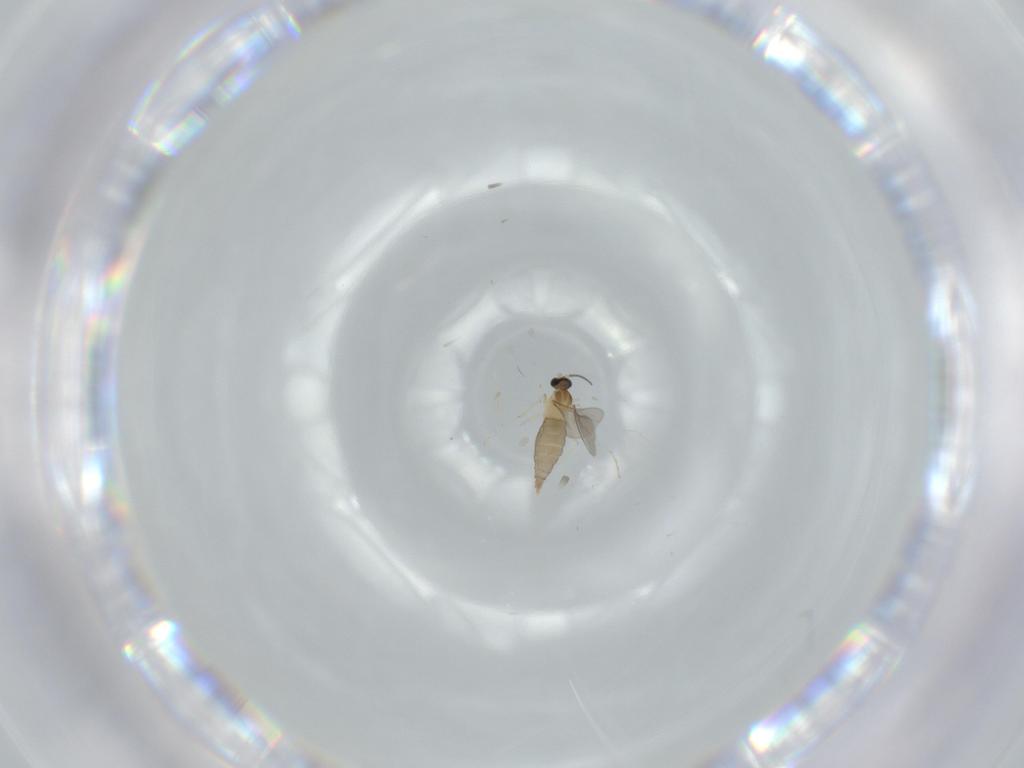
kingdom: Animalia
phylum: Arthropoda
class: Insecta
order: Diptera
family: Cecidomyiidae
